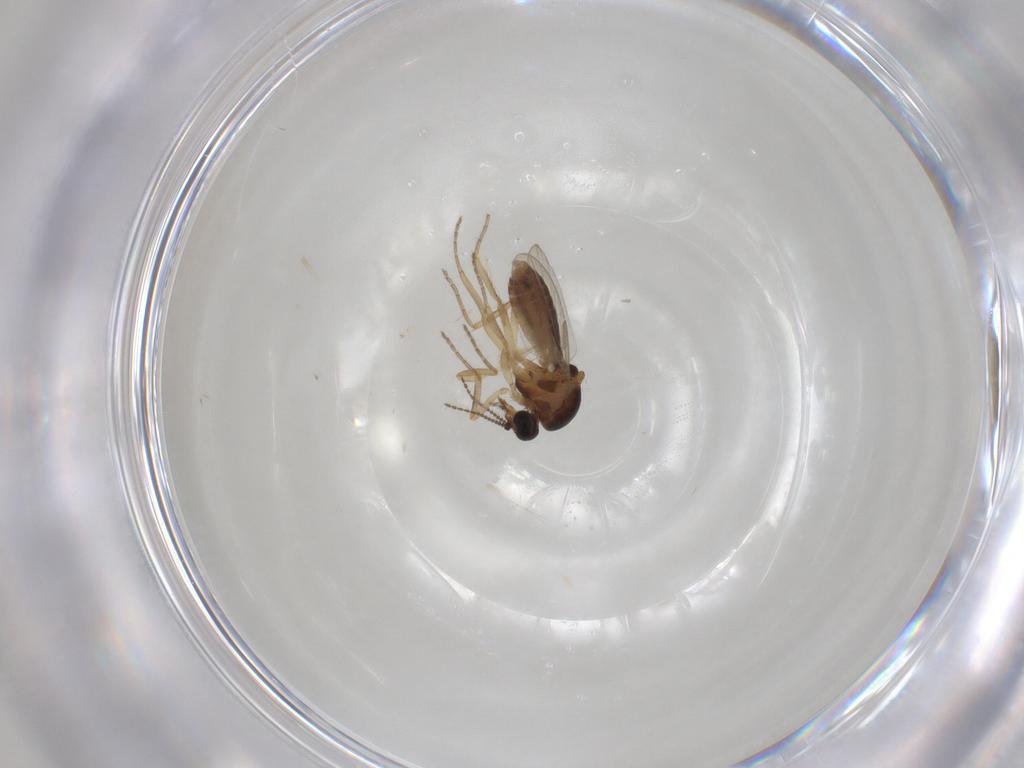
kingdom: Animalia
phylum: Arthropoda
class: Insecta
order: Diptera
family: Ceratopogonidae
